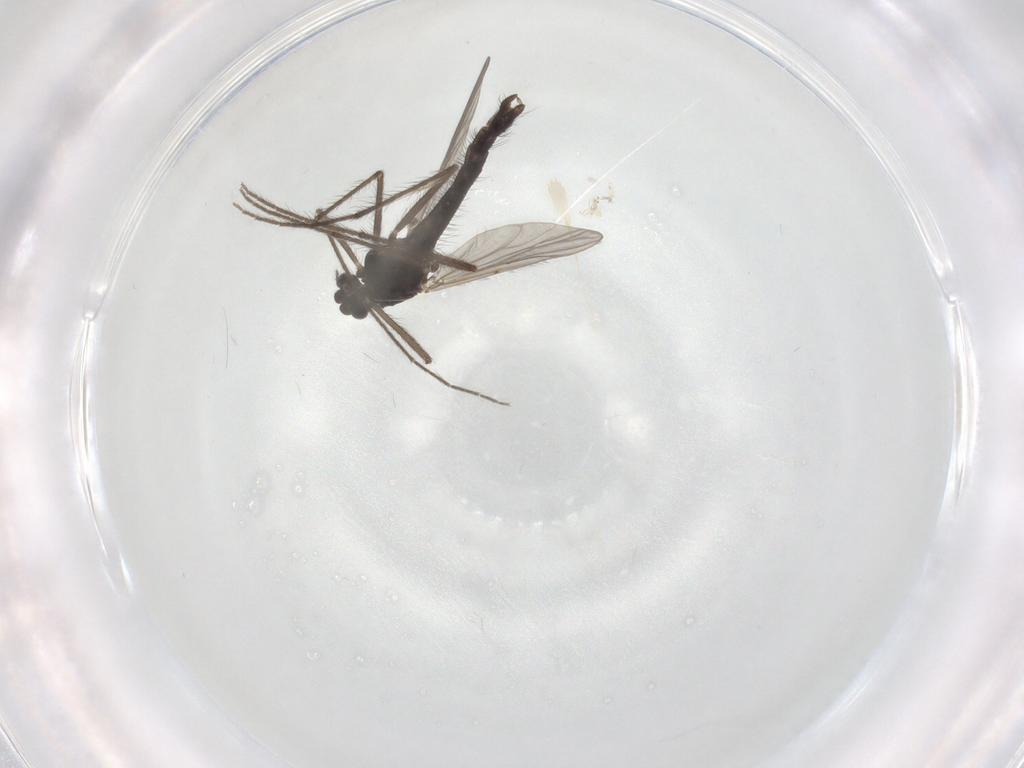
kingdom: Animalia
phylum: Arthropoda
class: Insecta
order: Diptera
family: Chironomidae
